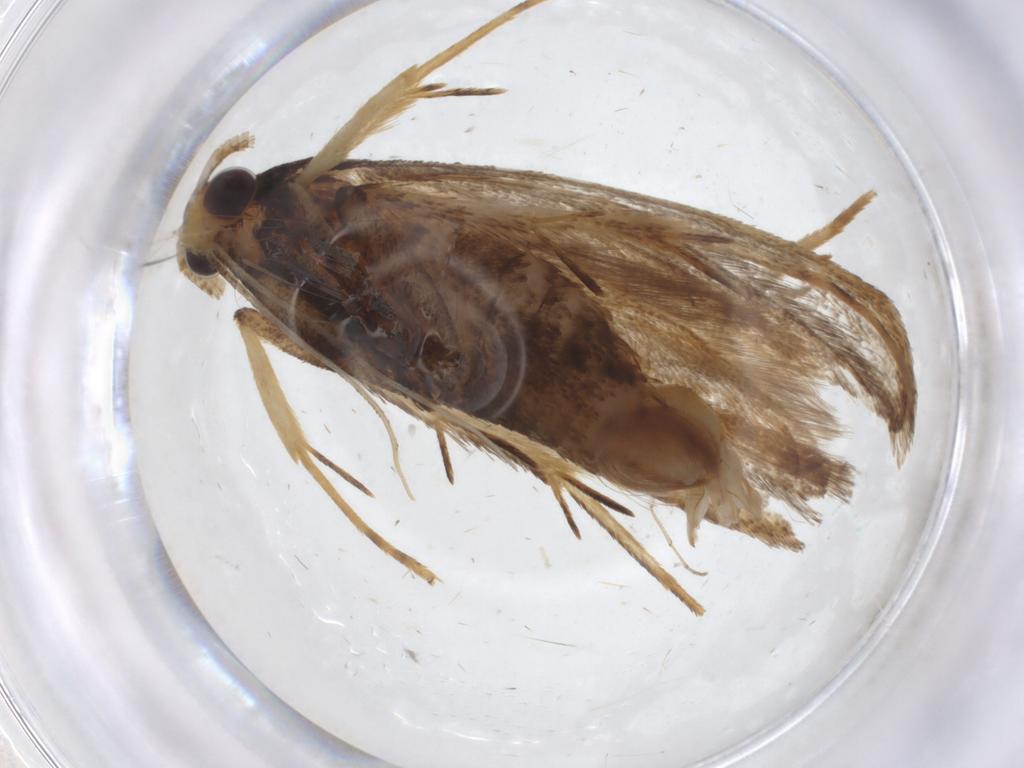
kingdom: Animalia
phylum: Arthropoda
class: Insecta
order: Lepidoptera
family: Lecithoceridae
